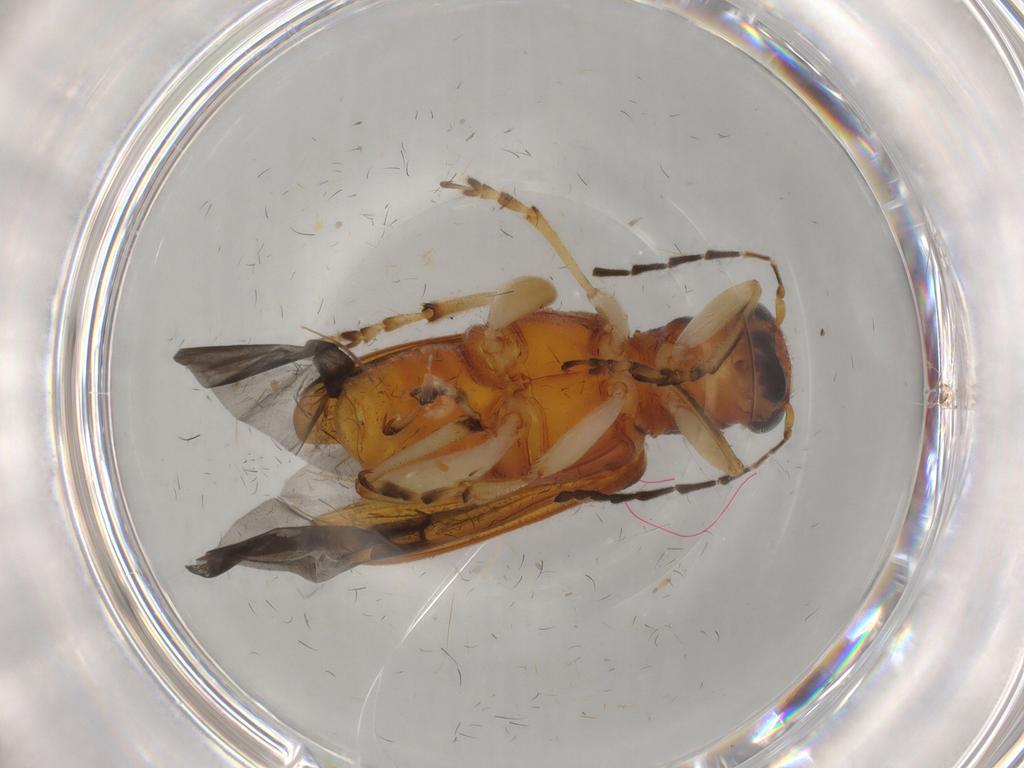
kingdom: Animalia
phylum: Arthropoda
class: Insecta
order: Coleoptera
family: Chrysomelidae
